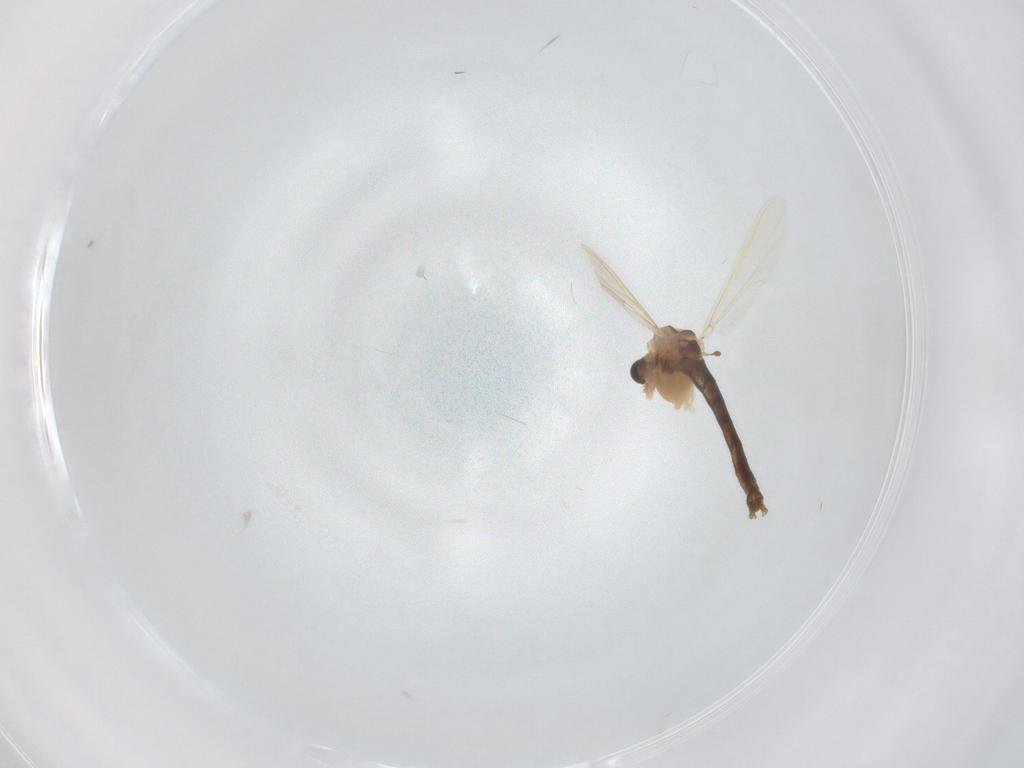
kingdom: Animalia
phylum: Arthropoda
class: Insecta
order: Diptera
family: Chironomidae
